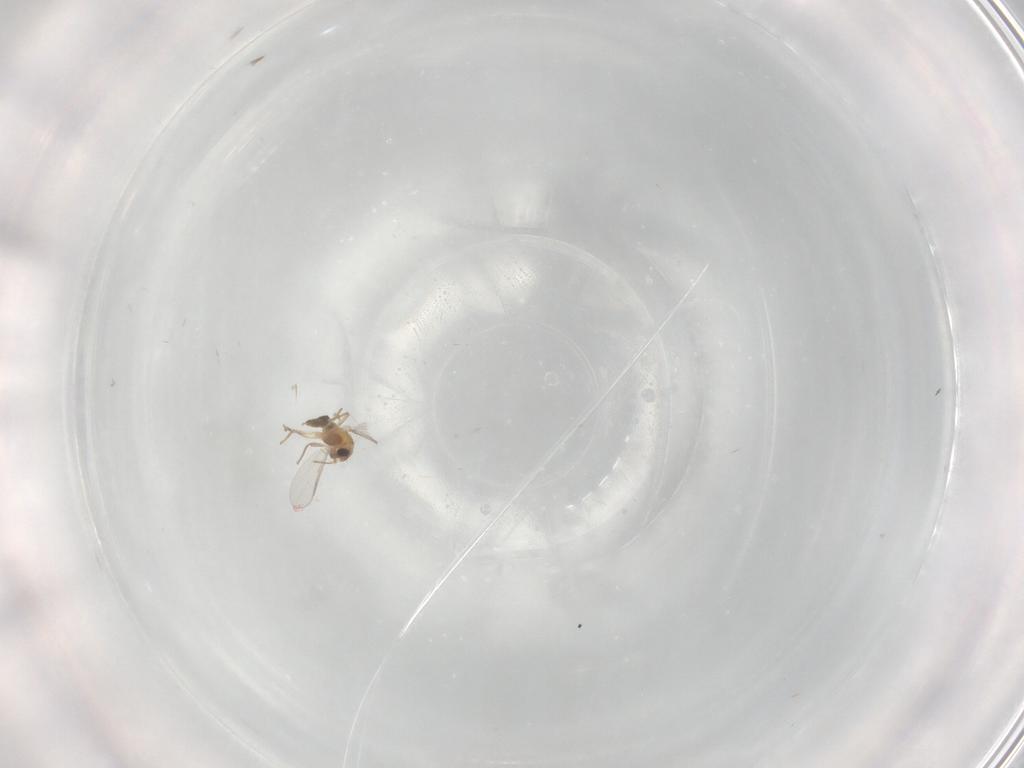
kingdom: Animalia
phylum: Arthropoda
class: Insecta
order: Diptera
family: Chironomidae
